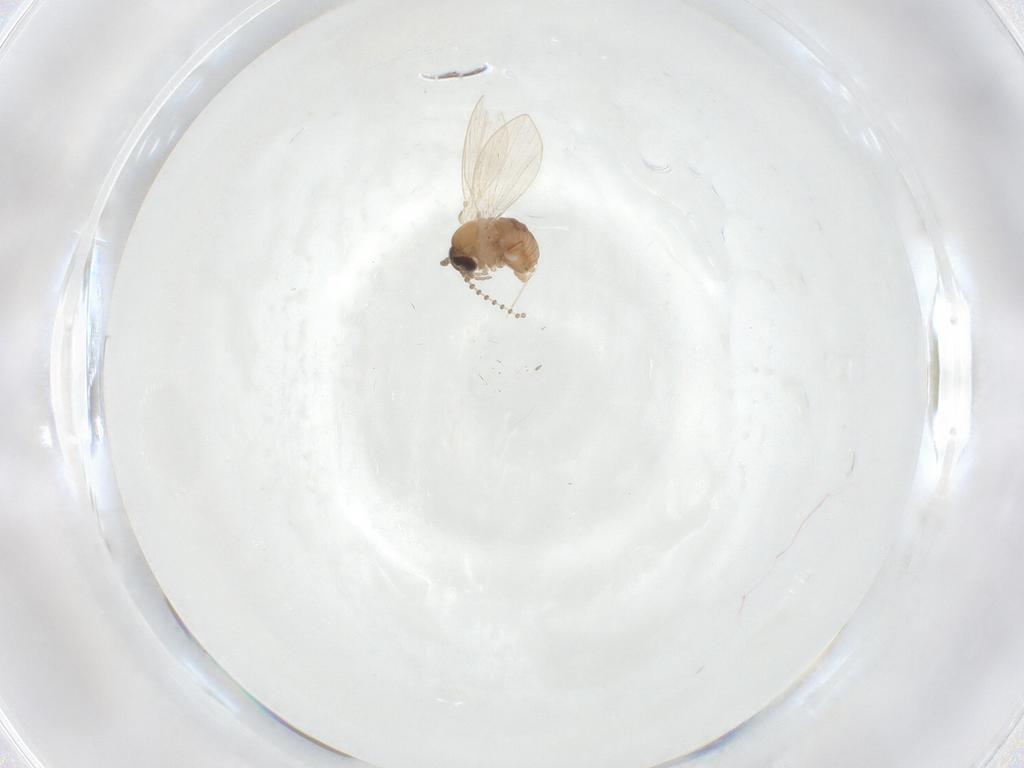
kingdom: Animalia
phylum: Arthropoda
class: Insecta
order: Diptera
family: Psychodidae
